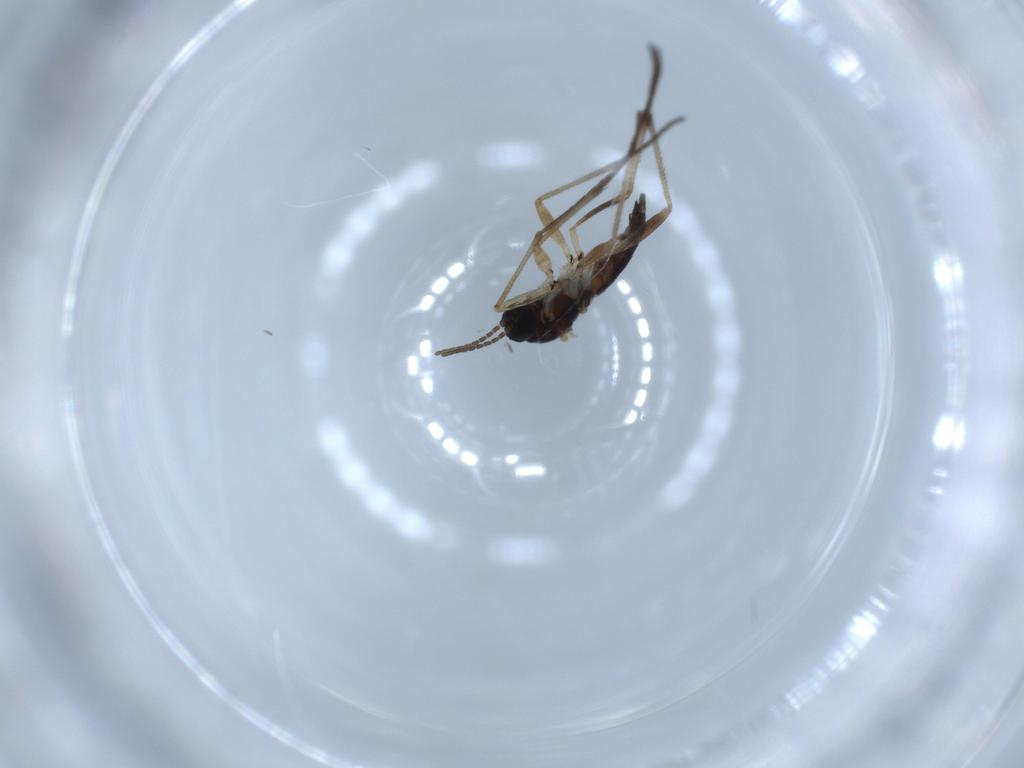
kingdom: Animalia
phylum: Arthropoda
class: Insecta
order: Diptera
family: Sciaridae
